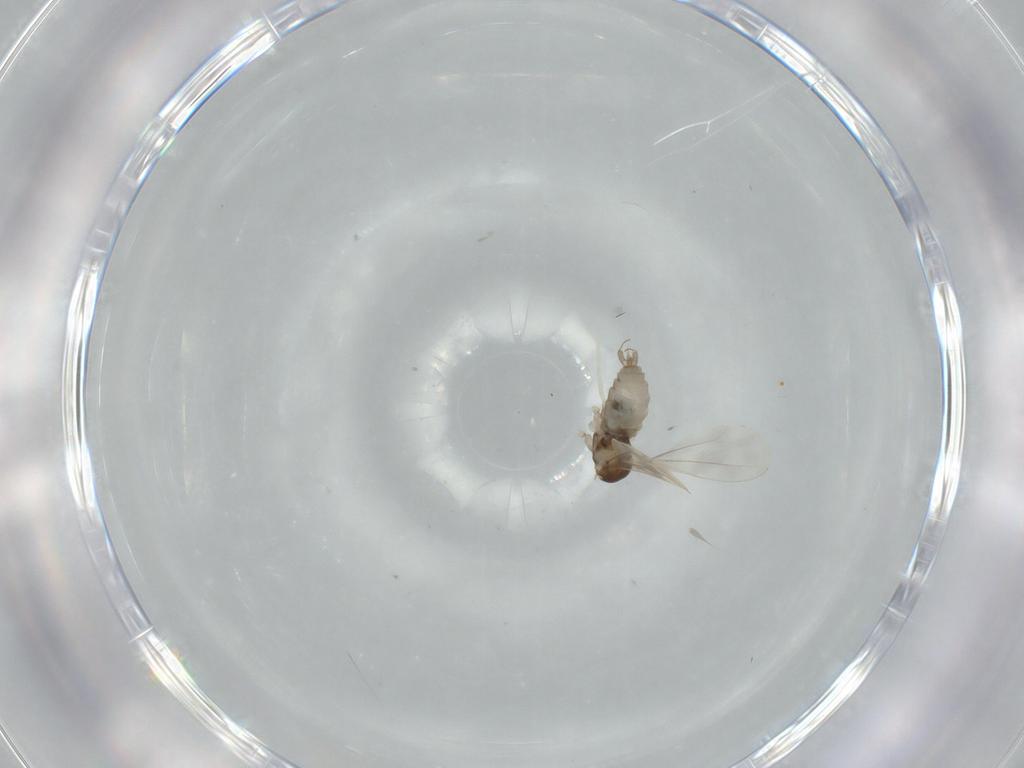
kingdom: Animalia
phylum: Arthropoda
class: Insecta
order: Diptera
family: Cecidomyiidae
